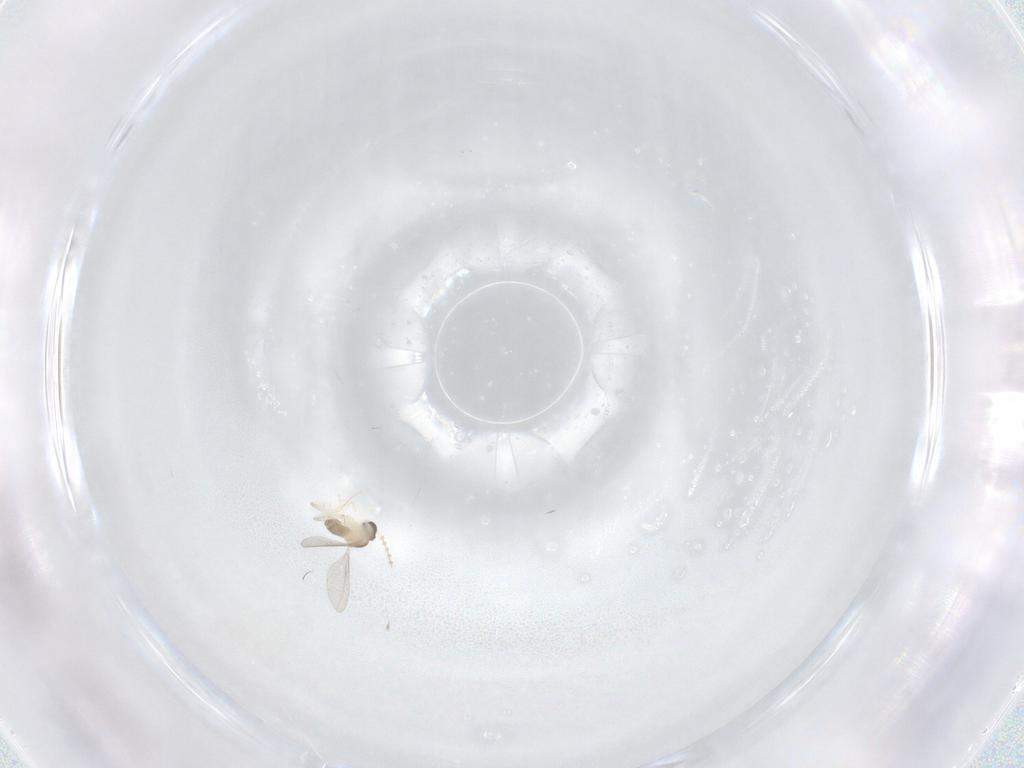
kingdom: Animalia
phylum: Arthropoda
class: Insecta
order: Diptera
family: Cecidomyiidae
